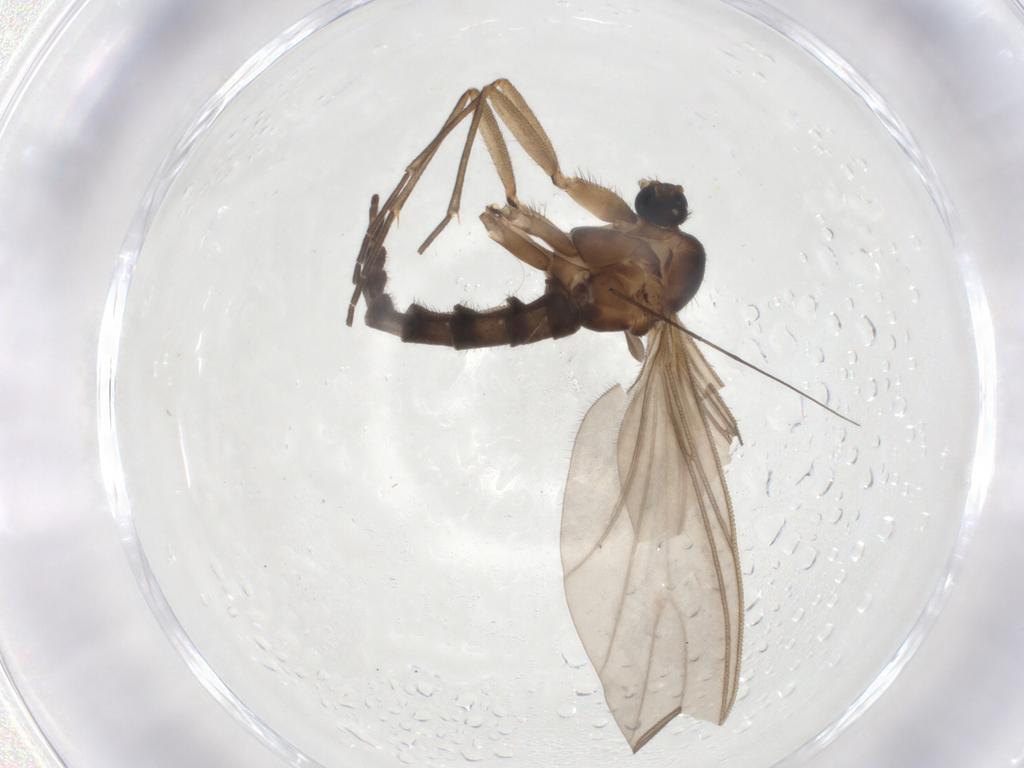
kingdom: Animalia
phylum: Arthropoda
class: Insecta
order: Diptera
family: Sciaridae
